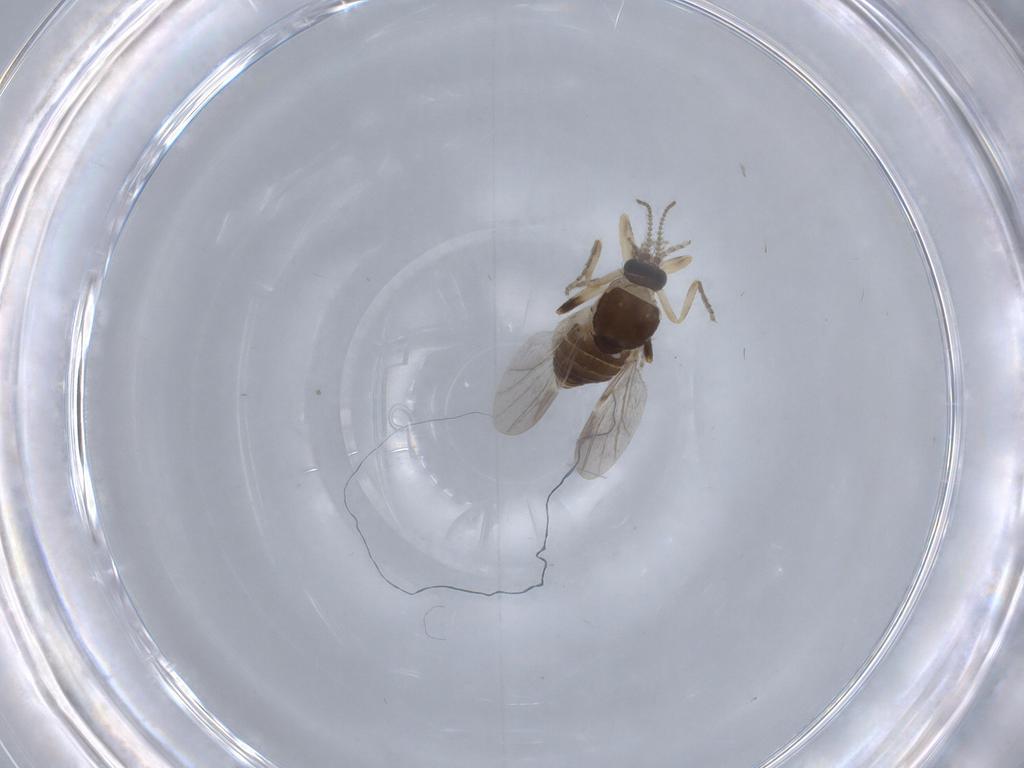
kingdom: Animalia
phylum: Arthropoda
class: Insecta
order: Diptera
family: Ceratopogonidae
